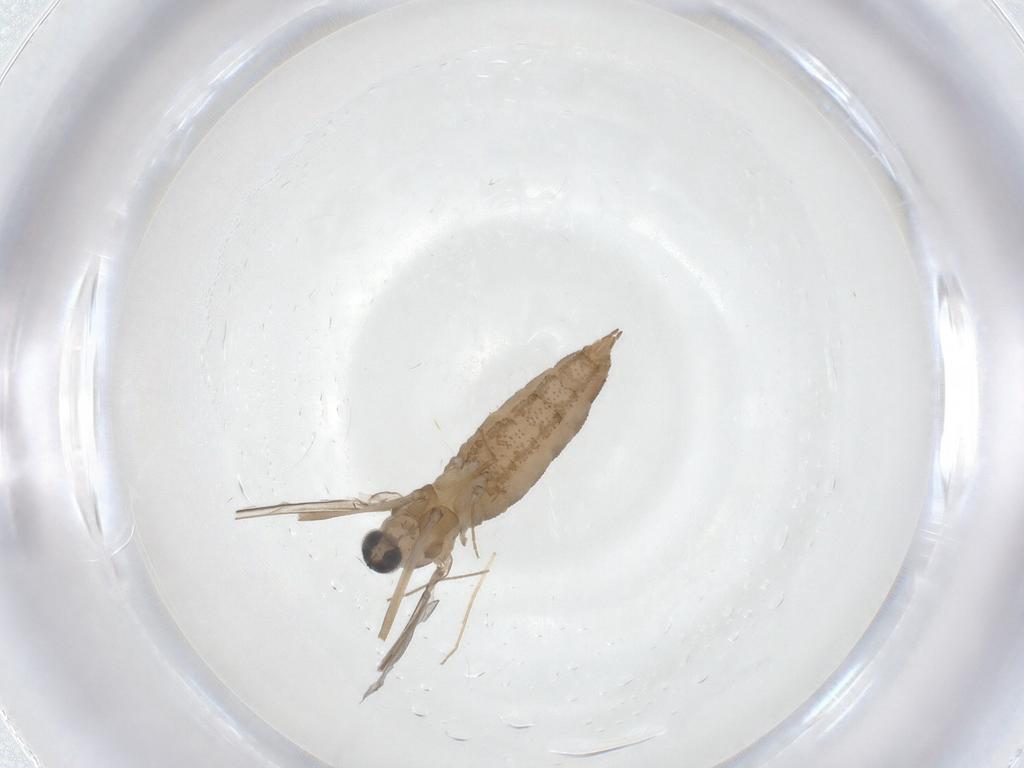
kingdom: Animalia
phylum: Arthropoda
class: Insecta
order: Diptera
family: Cecidomyiidae
